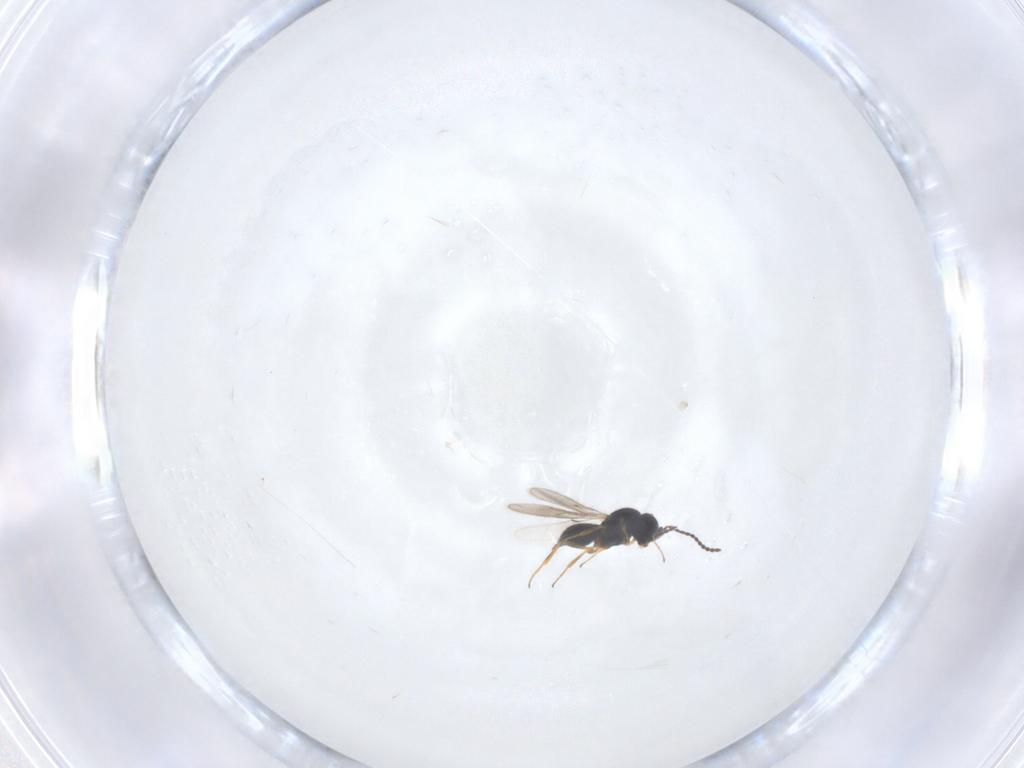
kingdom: Animalia
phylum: Arthropoda
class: Insecta
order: Hymenoptera
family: Scelionidae
